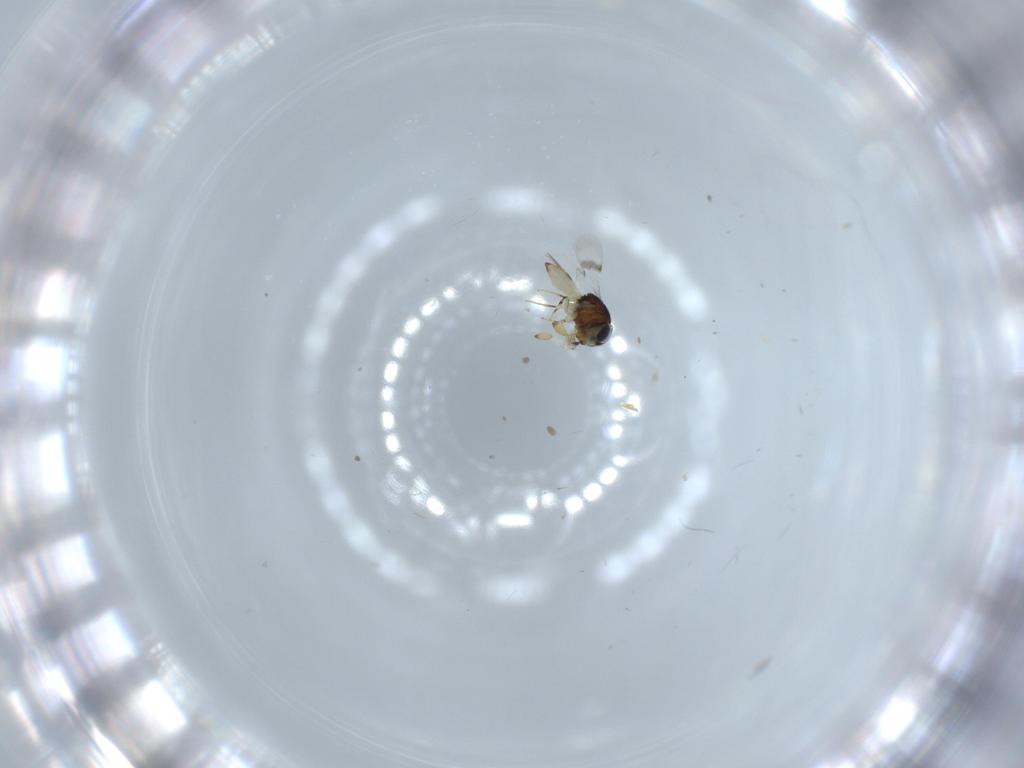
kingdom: Animalia
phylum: Arthropoda
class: Insecta
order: Hymenoptera
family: Scelionidae
